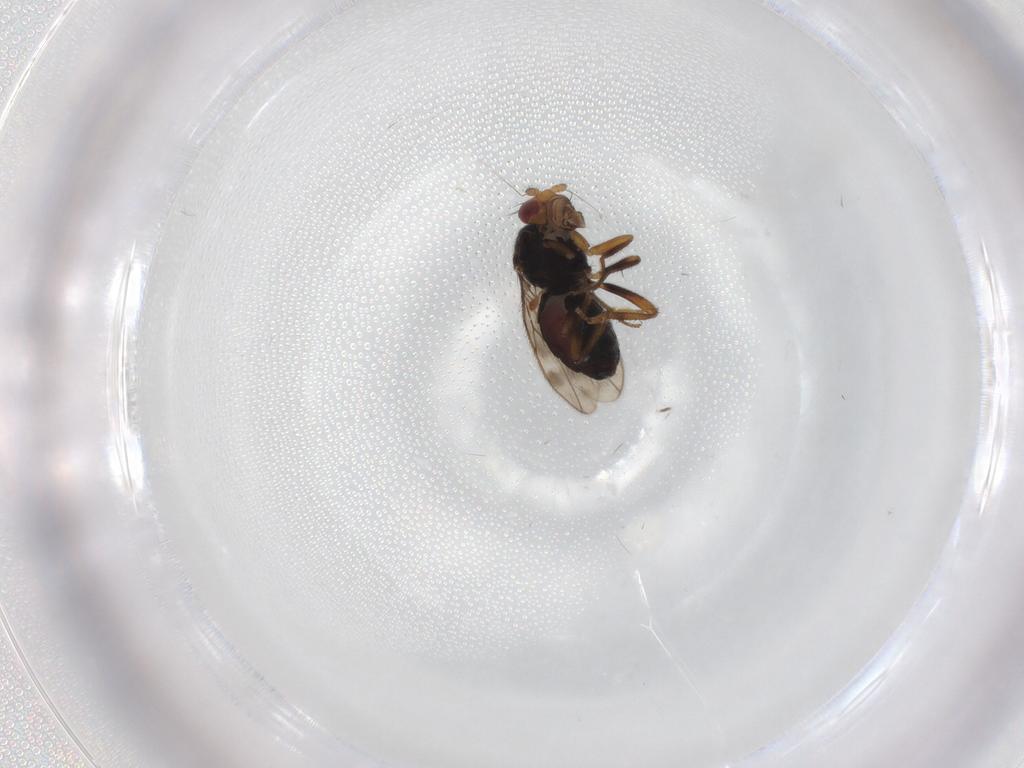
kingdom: Animalia
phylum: Arthropoda
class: Insecta
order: Diptera
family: Sphaeroceridae
